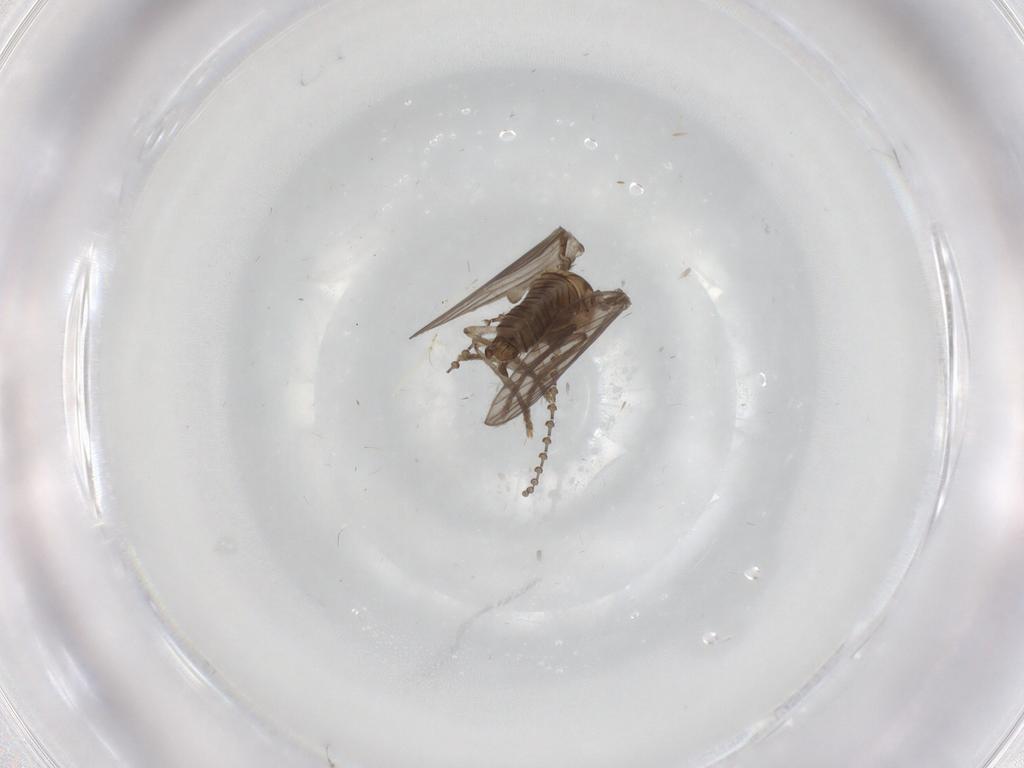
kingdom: Animalia
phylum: Arthropoda
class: Insecta
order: Diptera
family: Psychodidae
